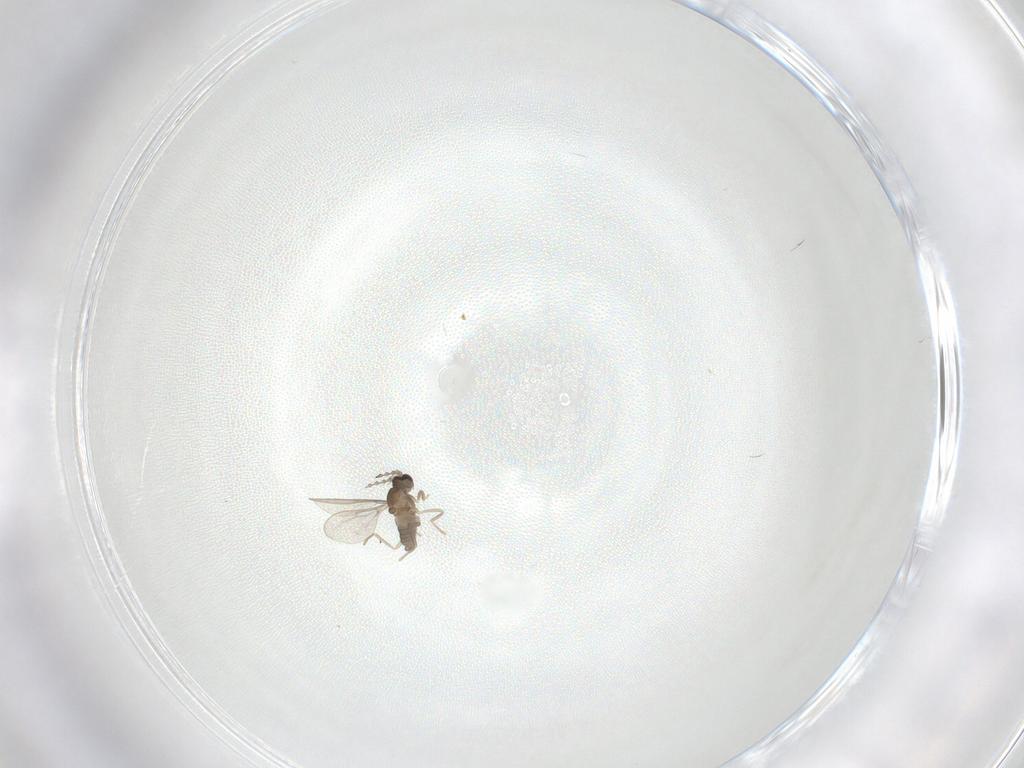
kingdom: Animalia
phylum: Arthropoda
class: Insecta
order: Diptera
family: Cecidomyiidae
